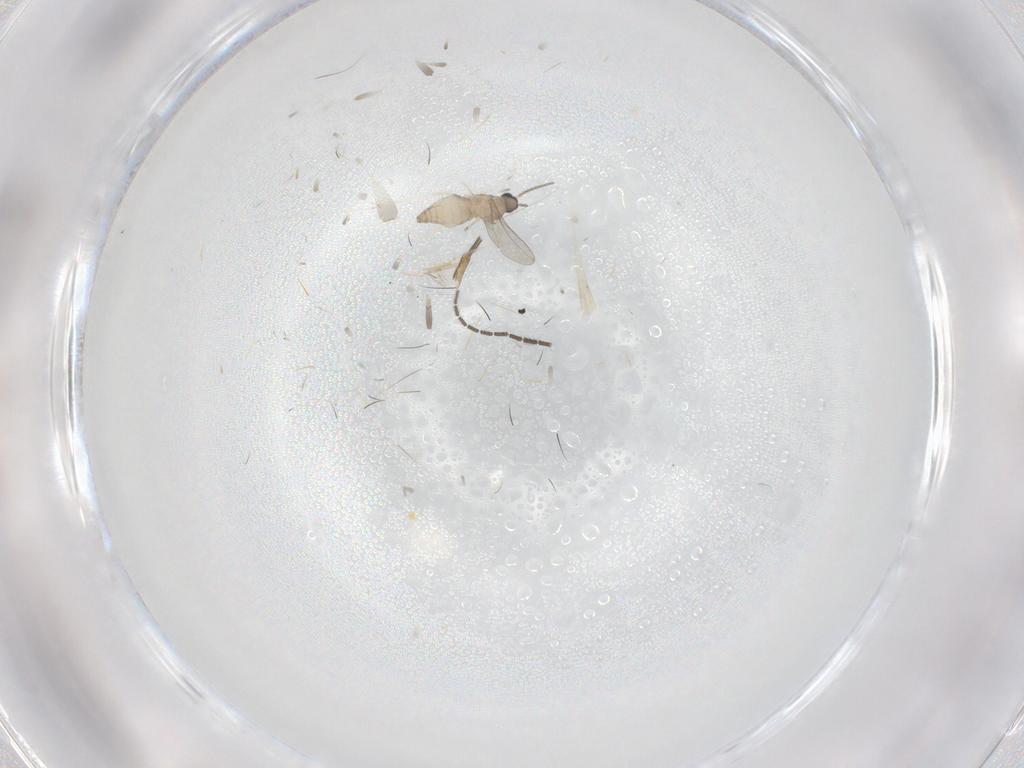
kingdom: Animalia
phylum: Arthropoda
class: Insecta
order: Diptera
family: Sciaridae
